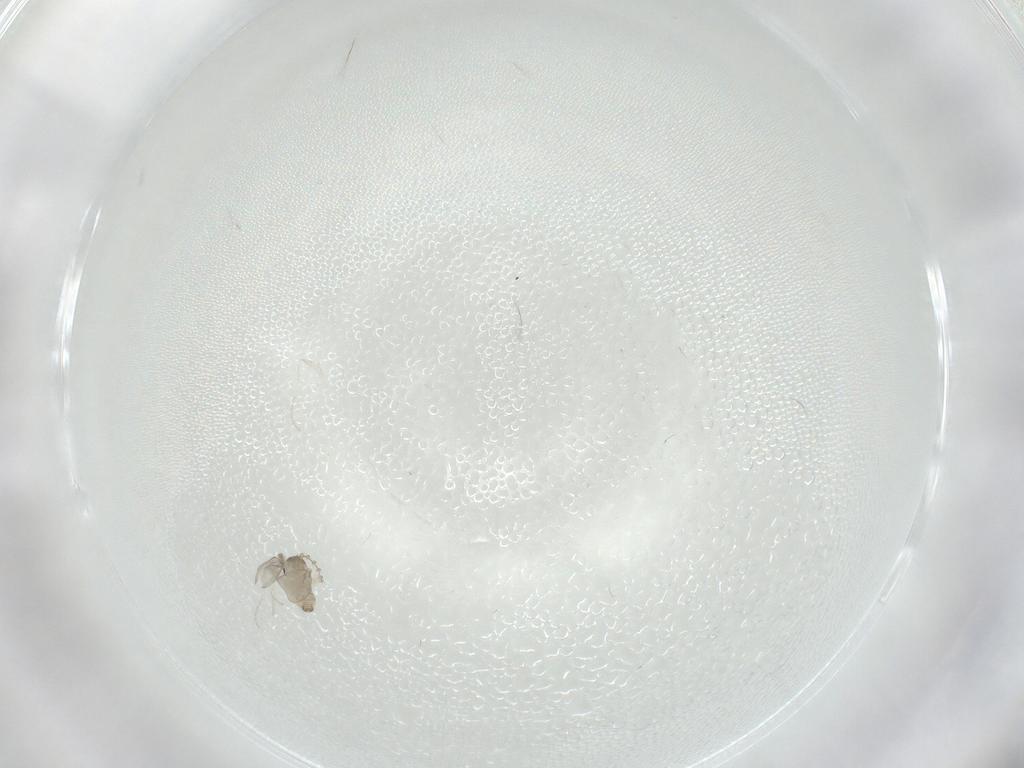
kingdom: Animalia
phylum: Arthropoda
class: Insecta
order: Diptera
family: Cecidomyiidae
